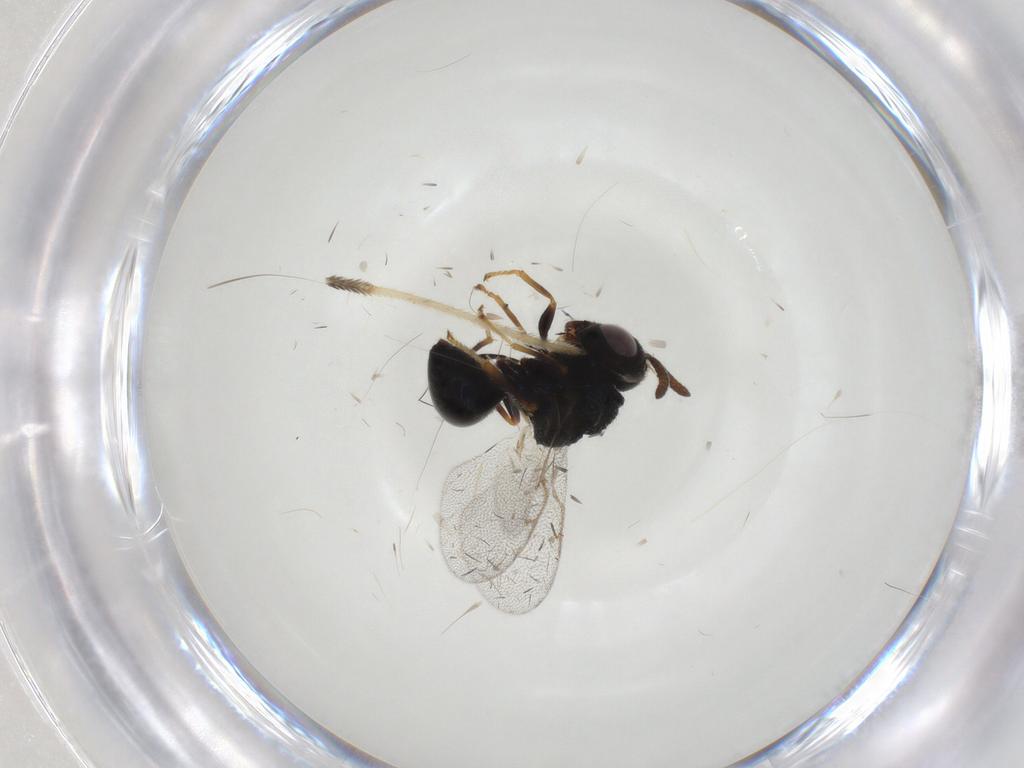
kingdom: Animalia
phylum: Arthropoda
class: Insecta
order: Hymenoptera
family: Perilampidae
